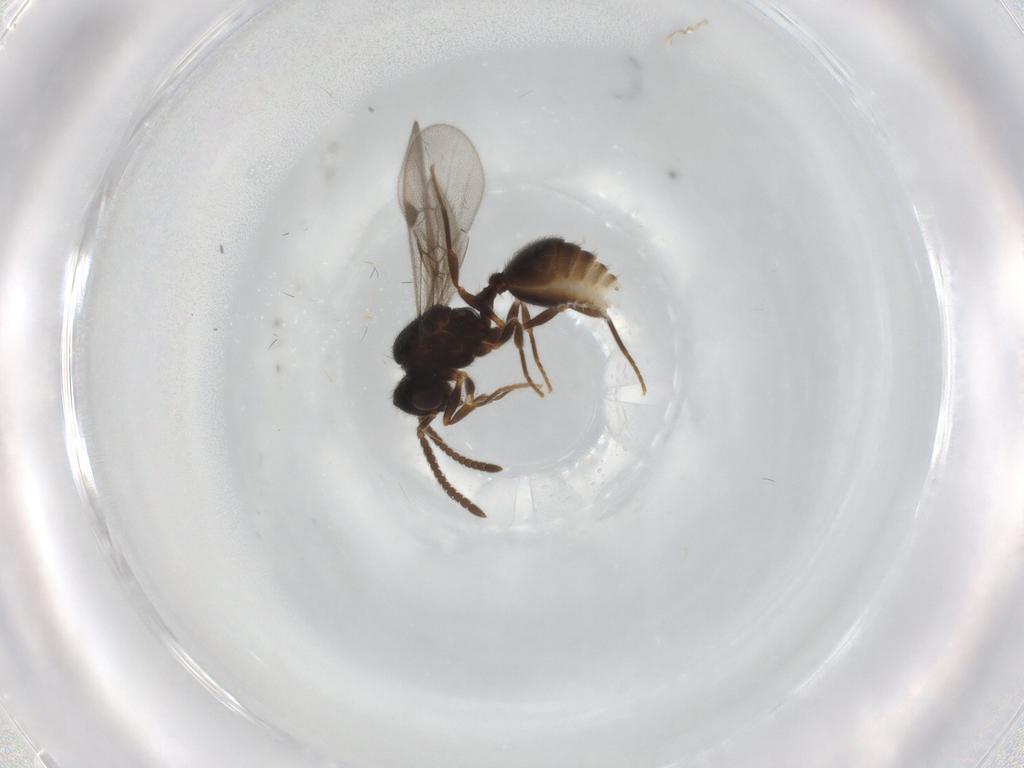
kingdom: Animalia
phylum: Arthropoda
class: Insecta
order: Hymenoptera
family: Formicidae
